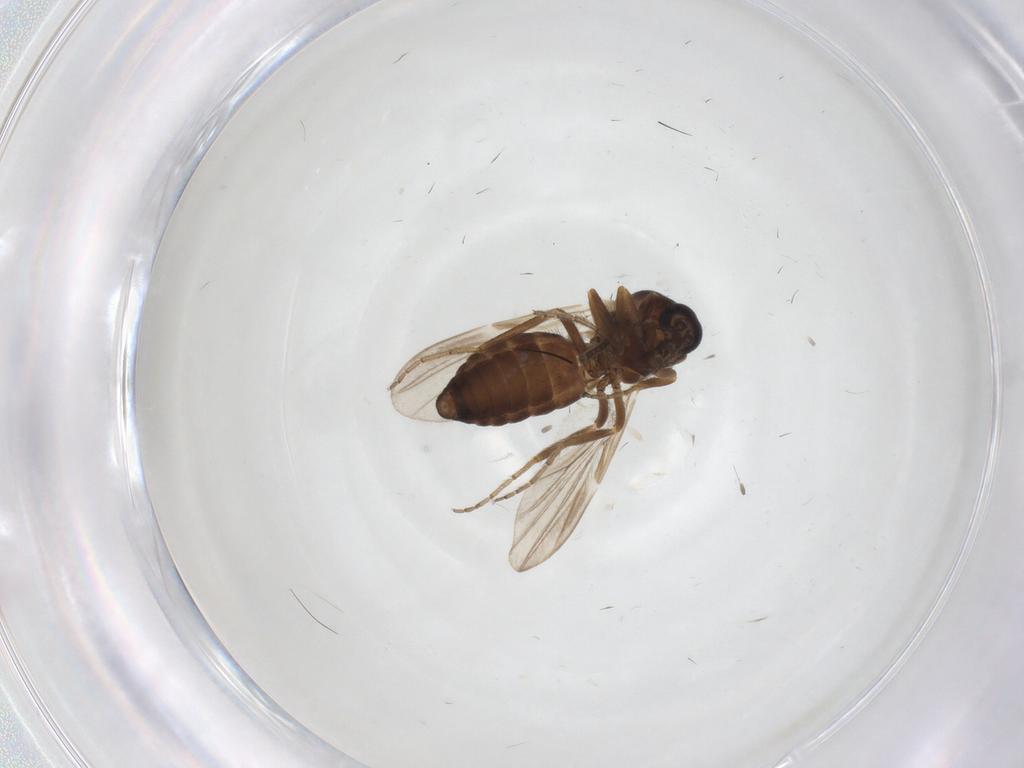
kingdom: Animalia
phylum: Arthropoda
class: Insecta
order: Diptera
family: Ceratopogonidae
